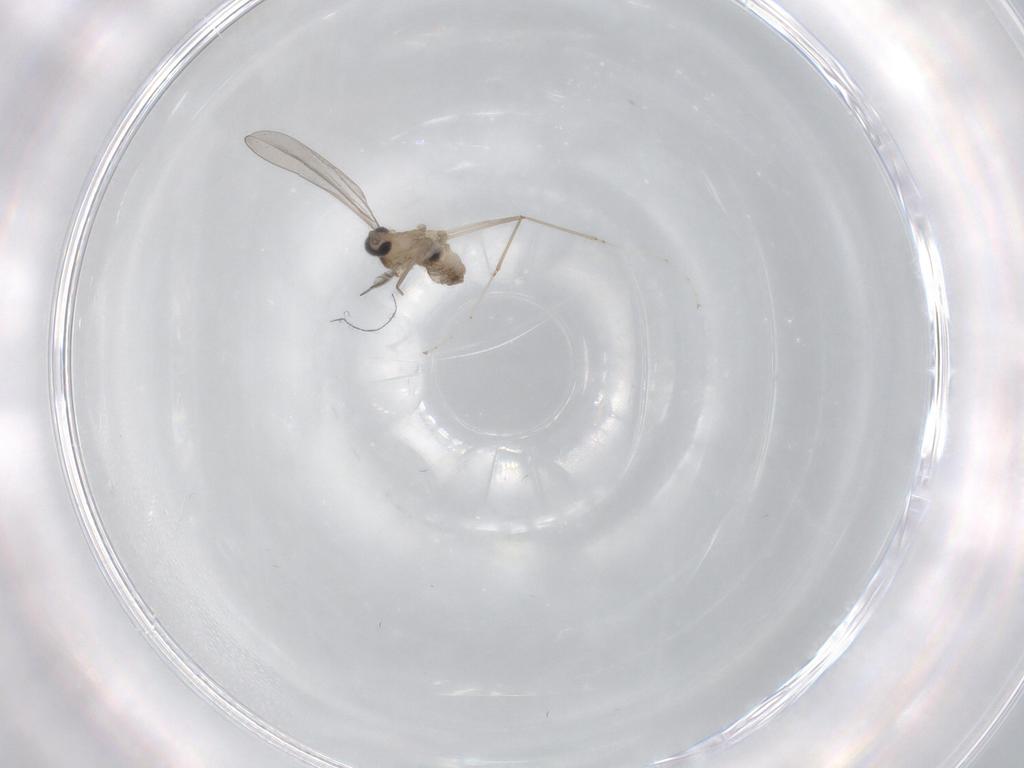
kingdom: Animalia
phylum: Arthropoda
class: Insecta
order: Diptera
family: Cecidomyiidae
